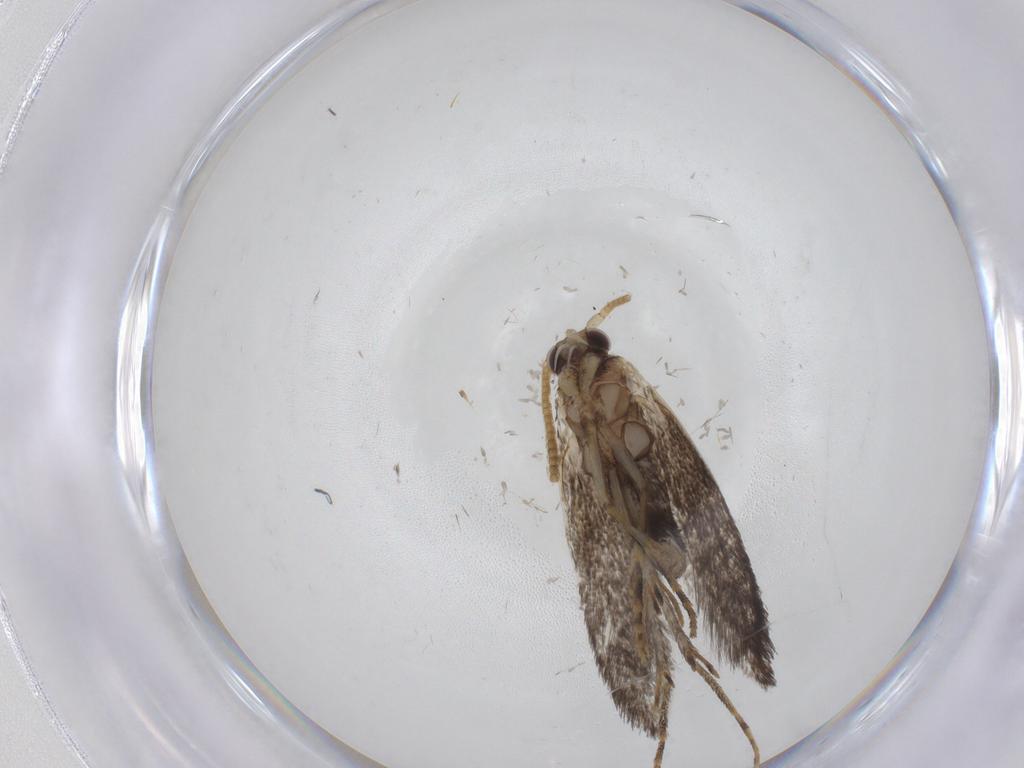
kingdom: Animalia
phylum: Arthropoda
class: Insecta
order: Lepidoptera
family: Tineidae
